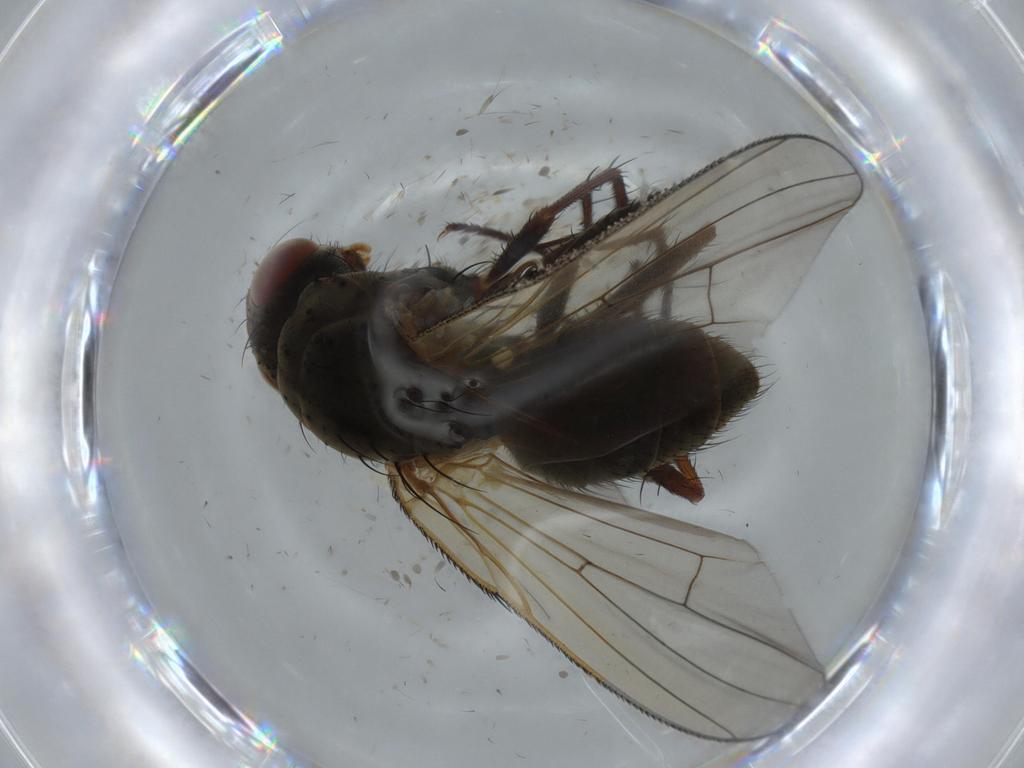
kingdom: Animalia
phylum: Arthropoda
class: Insecta
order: Diptera
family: Anthomyiidae
